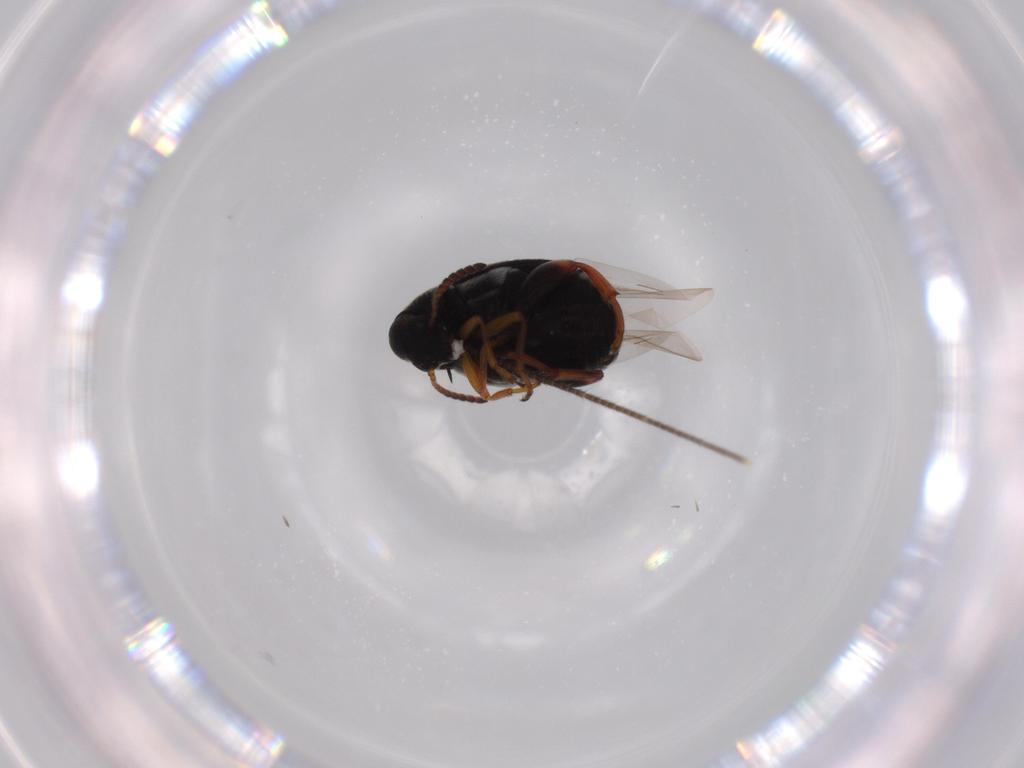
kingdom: Animalia
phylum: Arthropoda
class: Insecta
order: Coleoptera
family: Chrysomelidae
